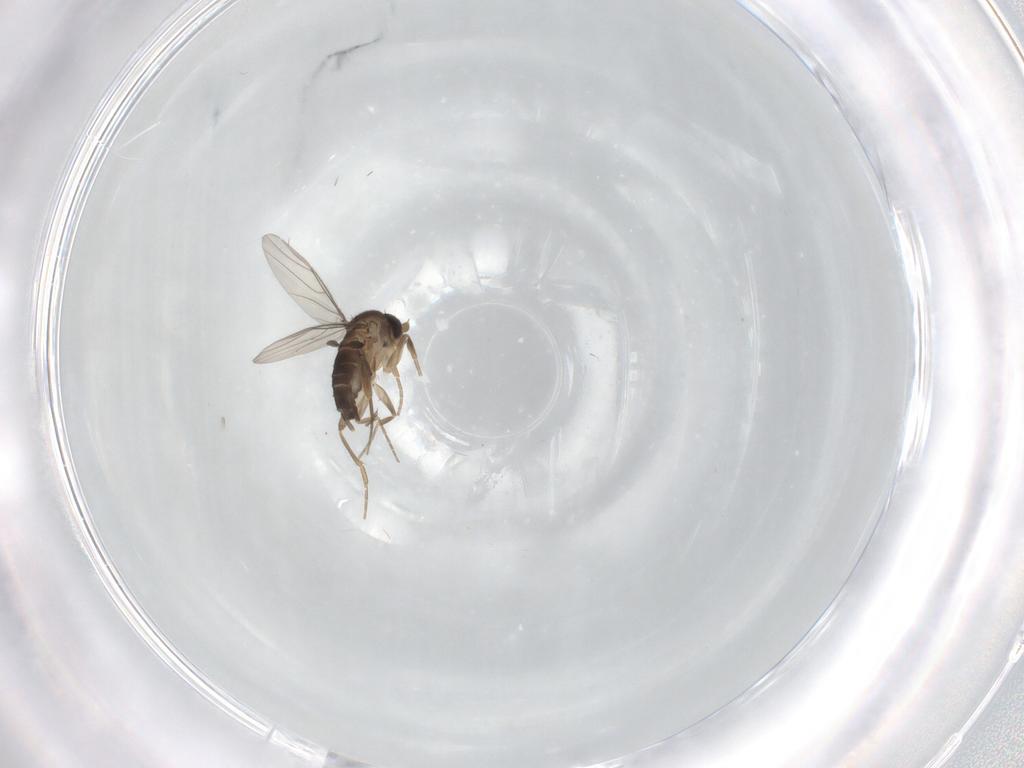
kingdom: Animalia
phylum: Arthropoda
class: Insecta
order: Diptera
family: Phoridae
